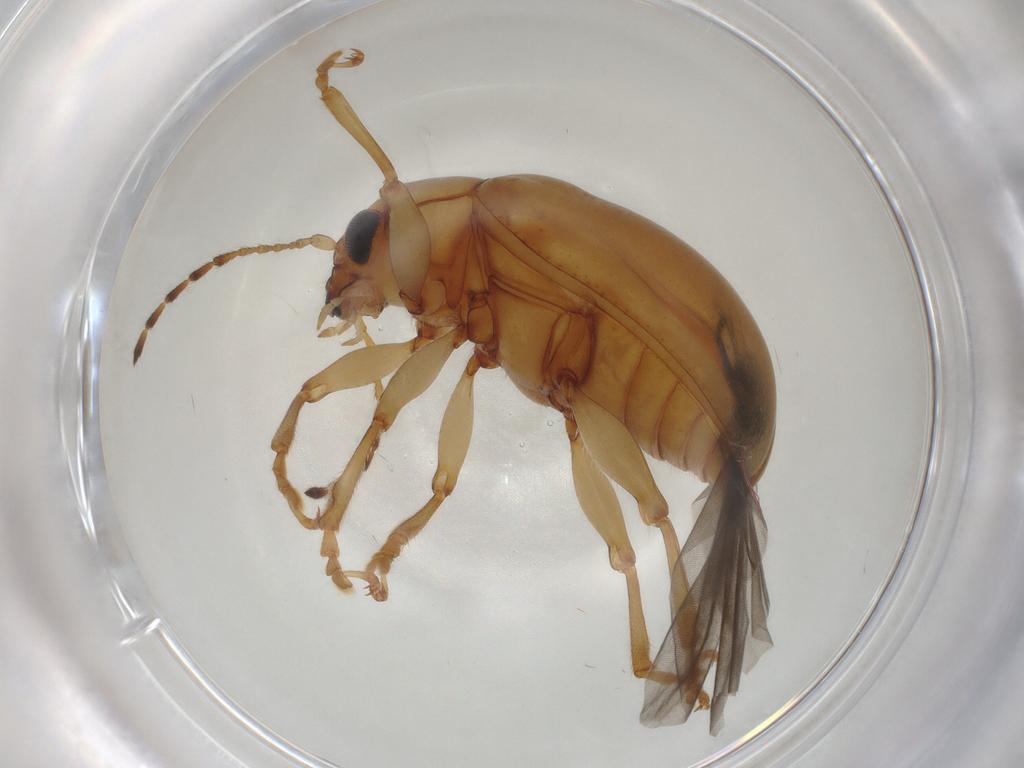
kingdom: Animalia
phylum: Arthropoda
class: Insecta
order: Coleoptera
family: Chrysomelidae
